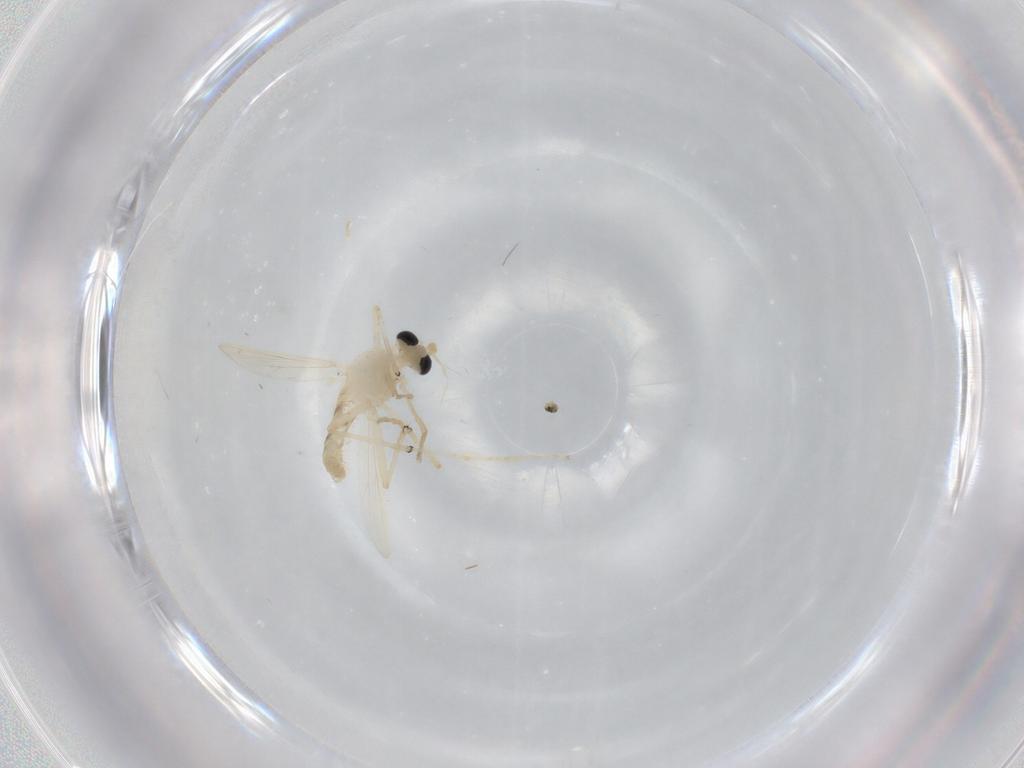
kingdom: Animalia
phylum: Arthropoda
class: Insecta
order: Diptera
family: Chironomidae
